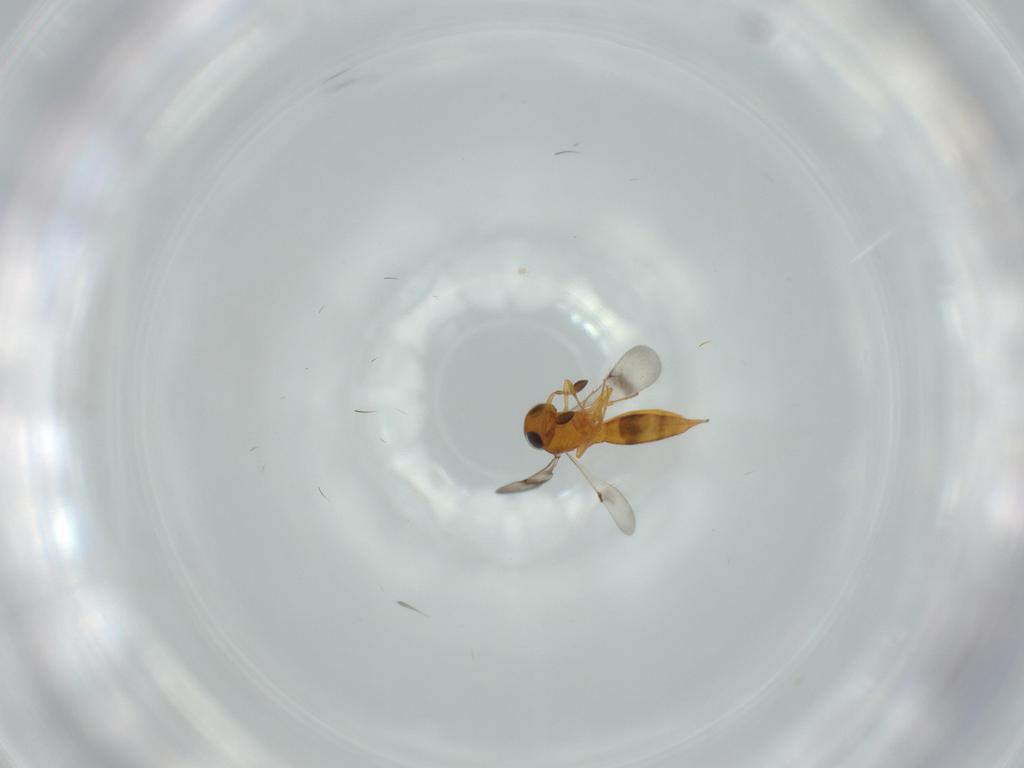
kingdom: Animalia
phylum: Arthropoda
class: Insecta
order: Hymenoptera
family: Scelionidae
